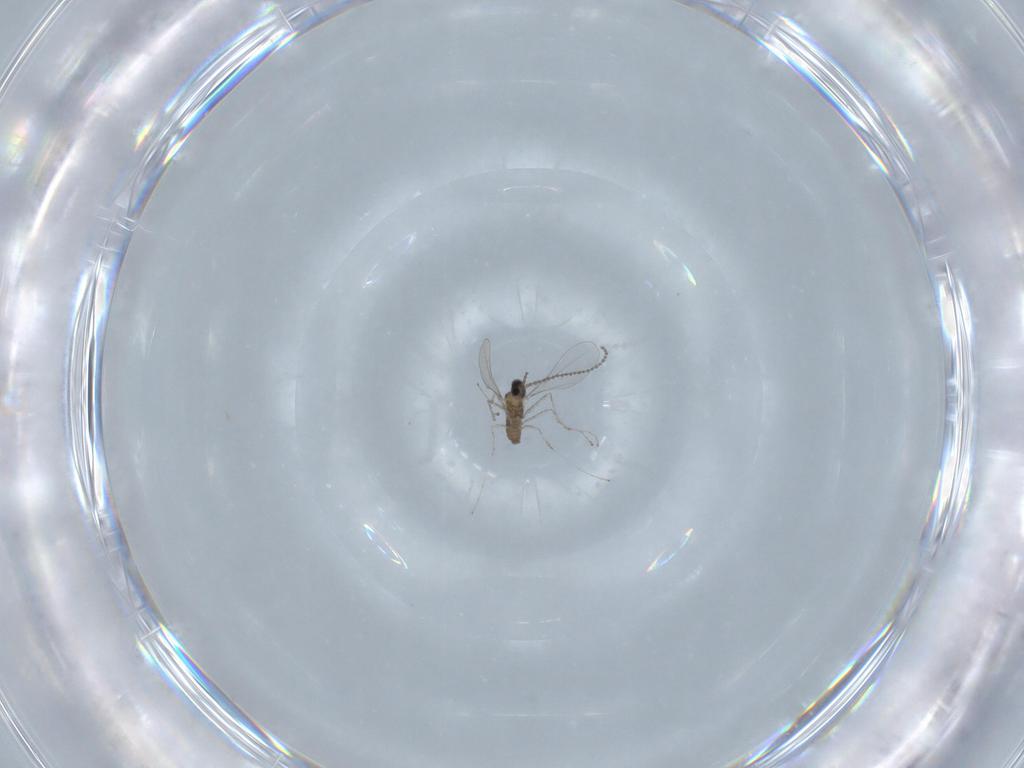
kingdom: Animalia
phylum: Arthropoda
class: Insecta
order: Diptera
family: Cecidomyiidae
